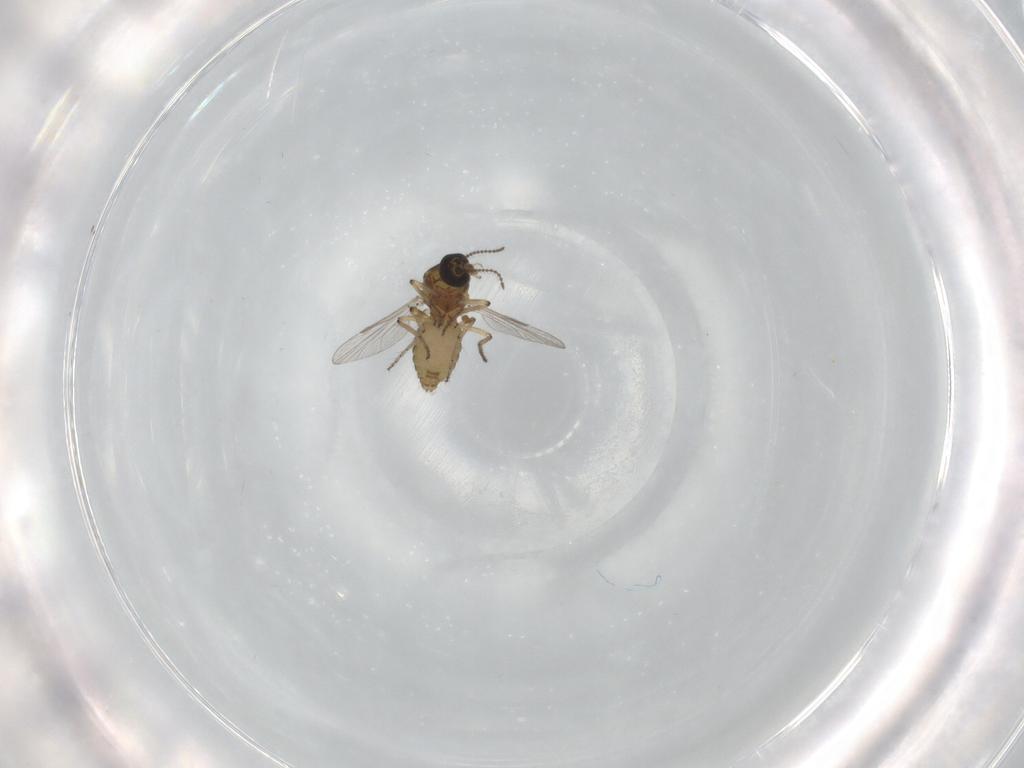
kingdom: Animalia
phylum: Arthropoda
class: Insecta
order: Diptera
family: Ceratopogonidae
